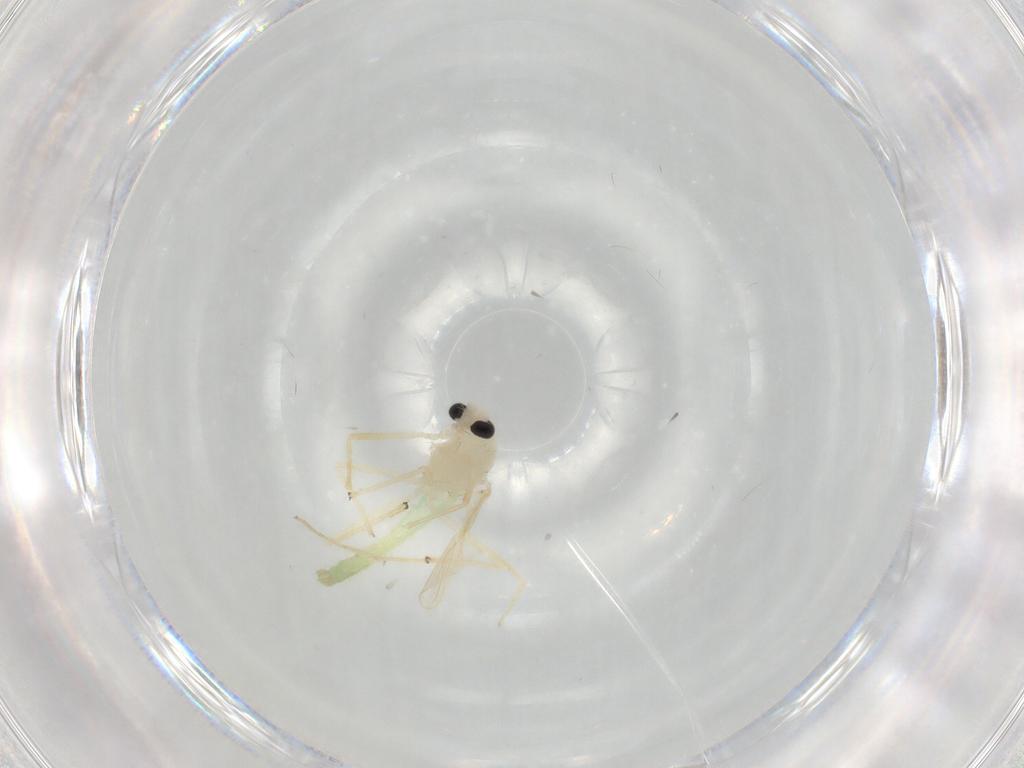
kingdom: Animalia
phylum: Arthropoda
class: Insecta
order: Diptera
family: Chironomidae
